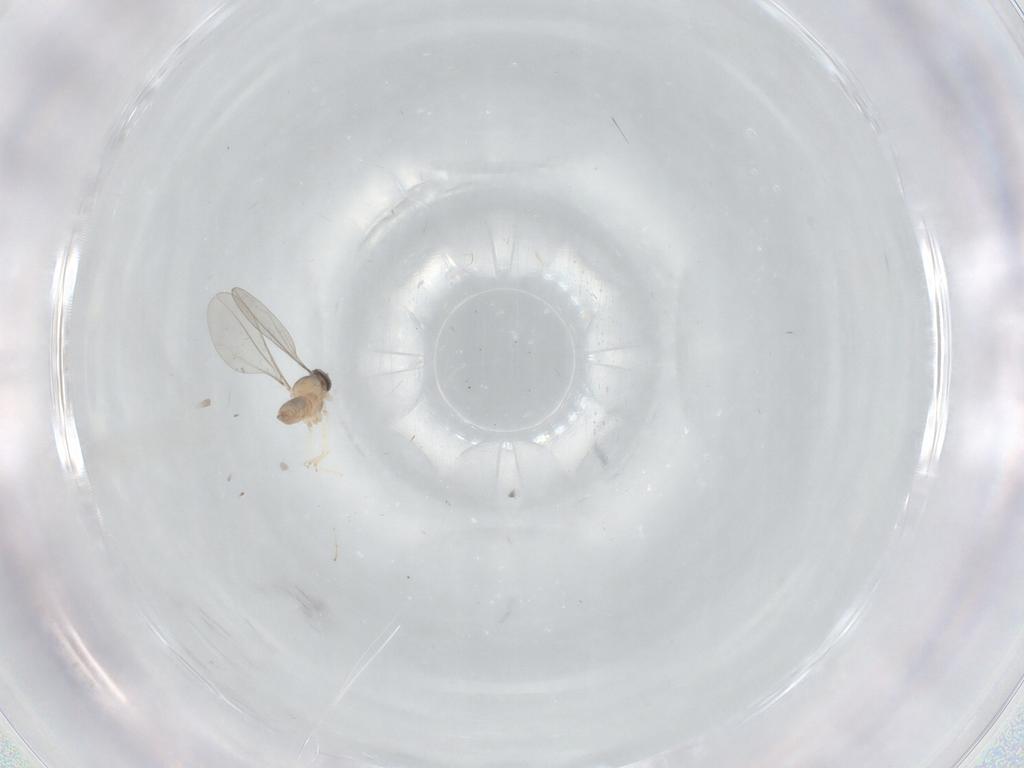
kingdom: Animalia
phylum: Arthropoda
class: Insecta
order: Diptera
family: Cecidomyiidae
